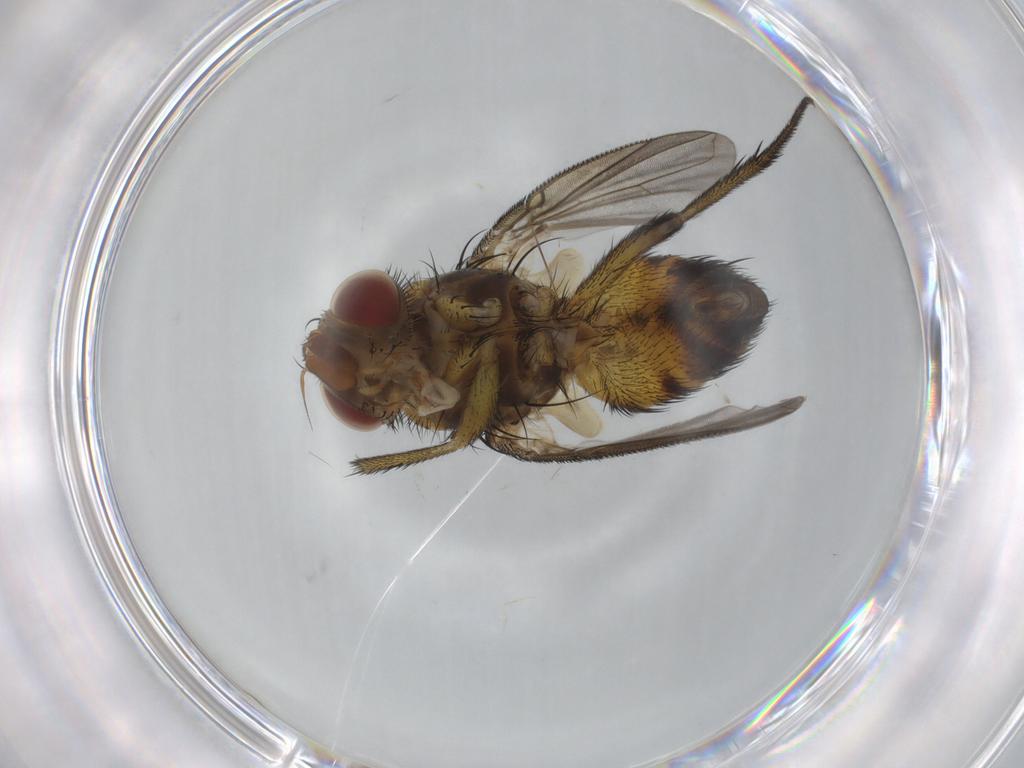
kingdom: Animalia
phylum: Arthropoda
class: Insecta
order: Diptera
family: Tachinidae
